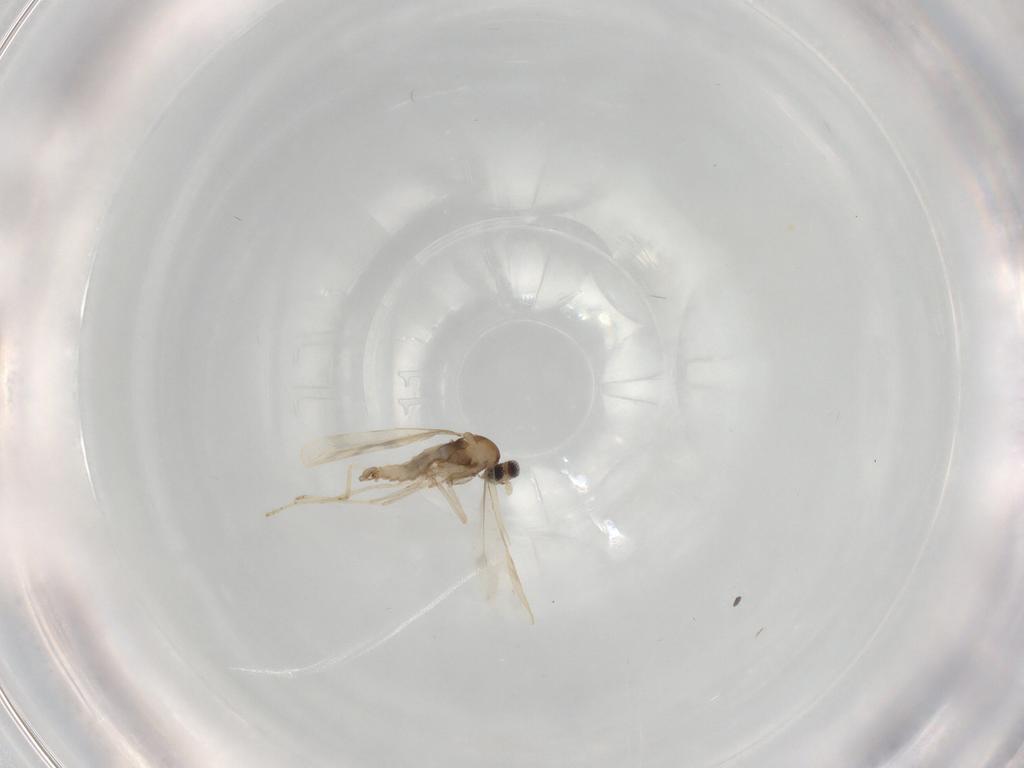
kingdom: Animalia
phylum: Arthropoda
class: Insecta
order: Diptera
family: Cecidomyiidae
